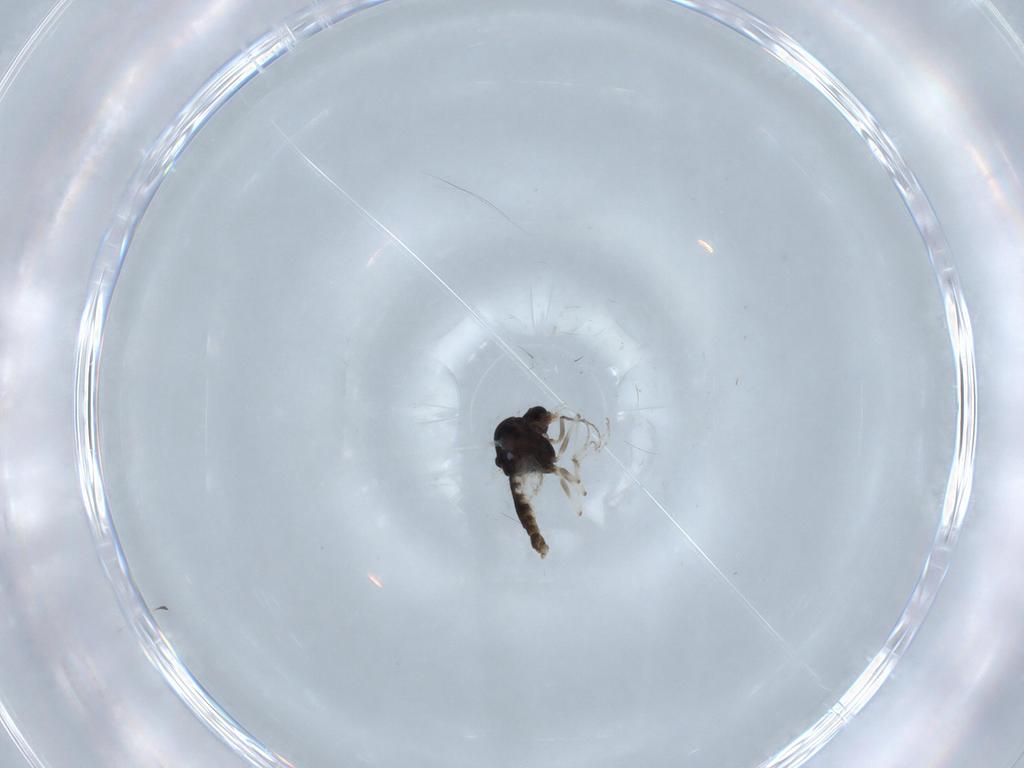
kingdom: Animalia
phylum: Arthropoda
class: Insecta
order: Diptera
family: Chironomidae
